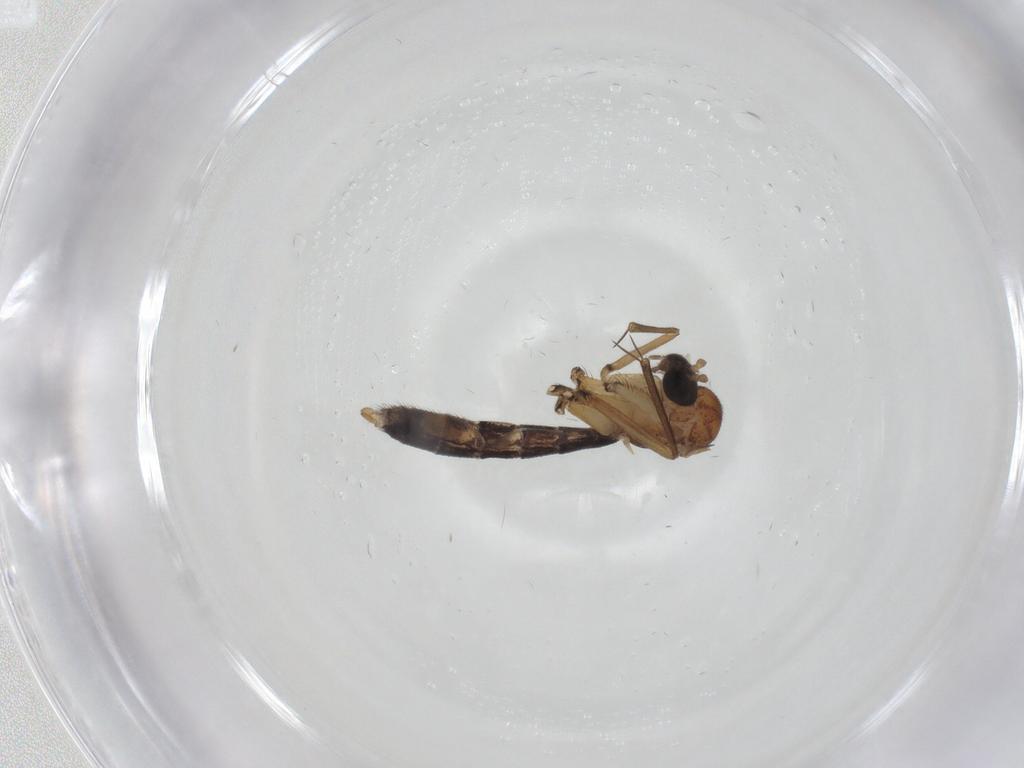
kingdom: Animalia
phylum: Arthropoda
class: Insecta
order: Diptera
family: Mycetophilidae
